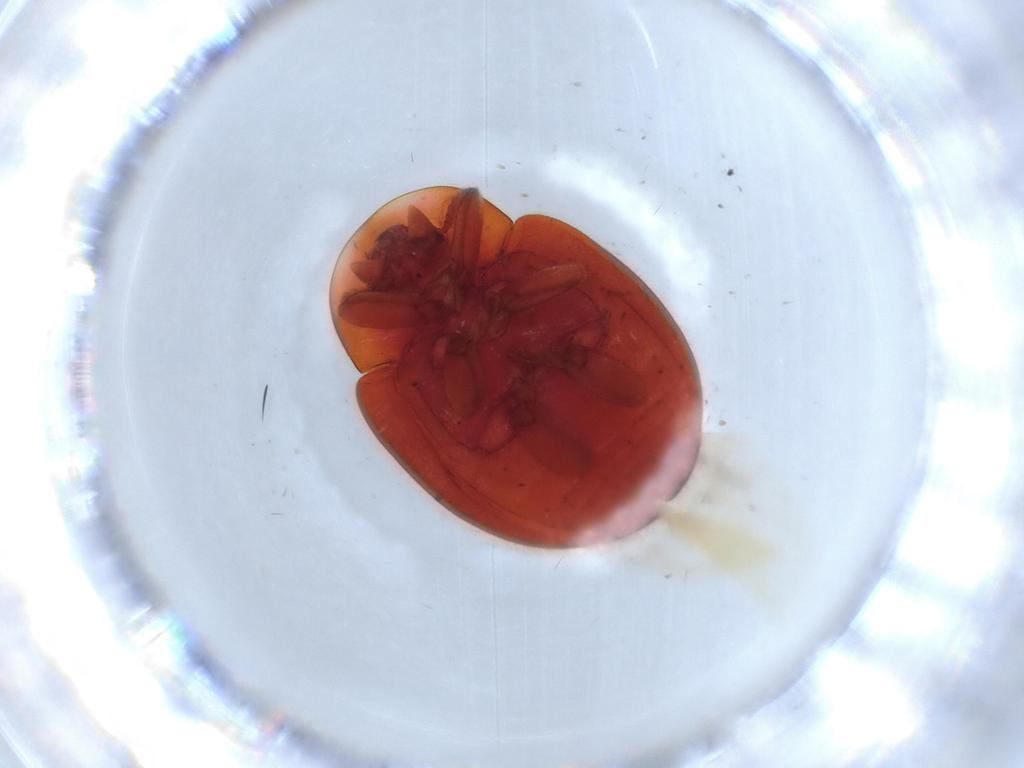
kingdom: Animalia
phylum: Arthropoda
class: Insecta
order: Coleoptera
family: Coccinellidae
